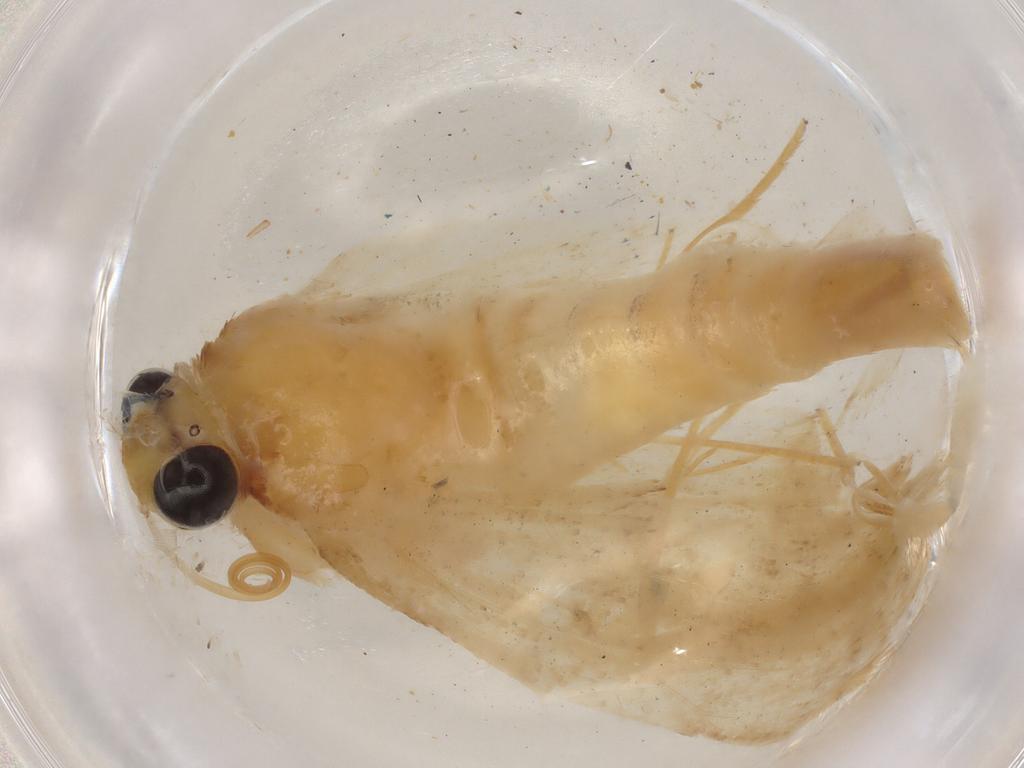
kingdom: Animalia
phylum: Arthropoda
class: Insecta
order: Lepidoptera
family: Crambidae
